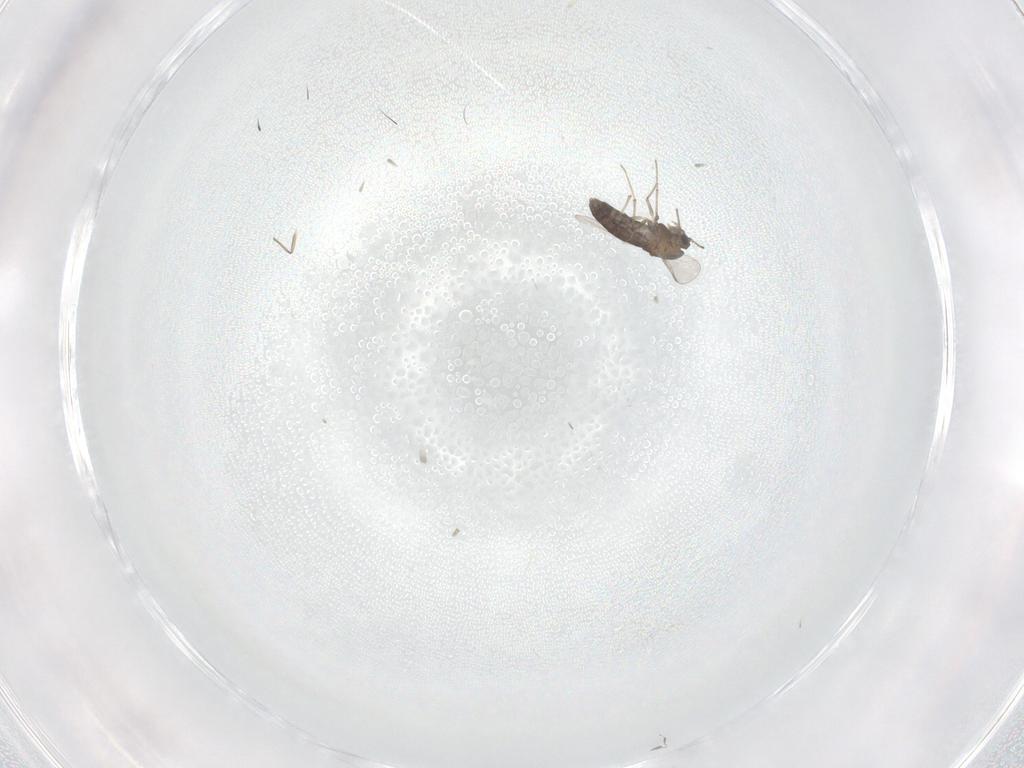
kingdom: Animalia
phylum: Arthropoda
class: Insecta
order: Diptera
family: Chironomidae
